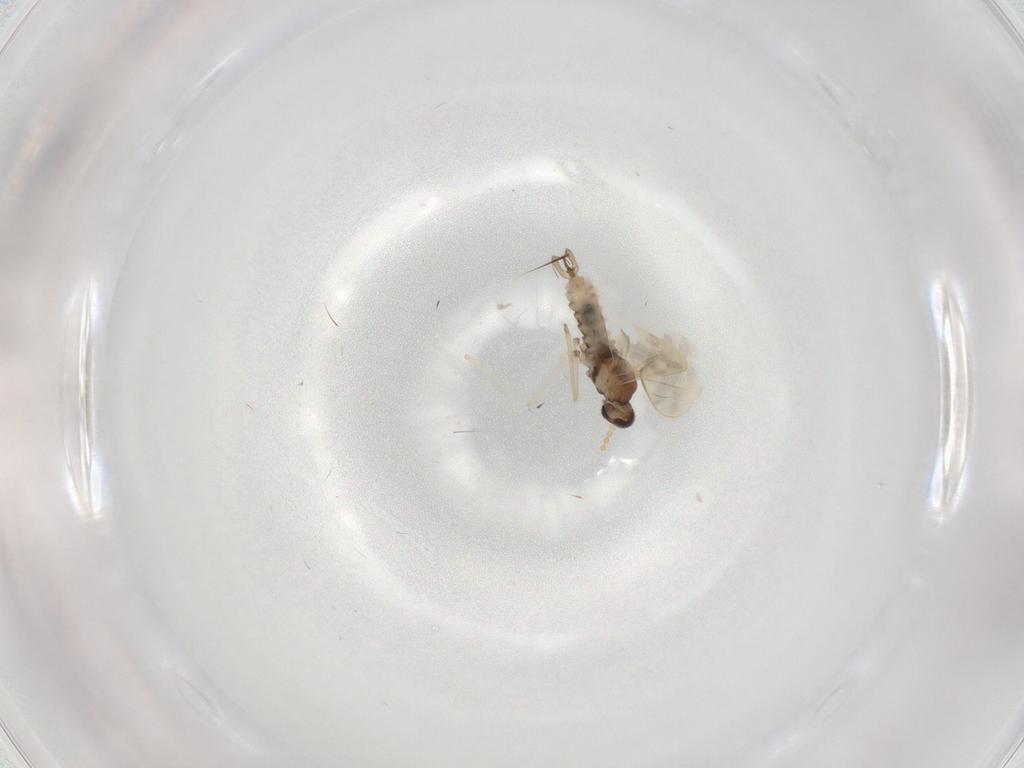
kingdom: Animalia
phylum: Arthropoda
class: Insecta
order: Diptera
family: Cecidomyiidae
